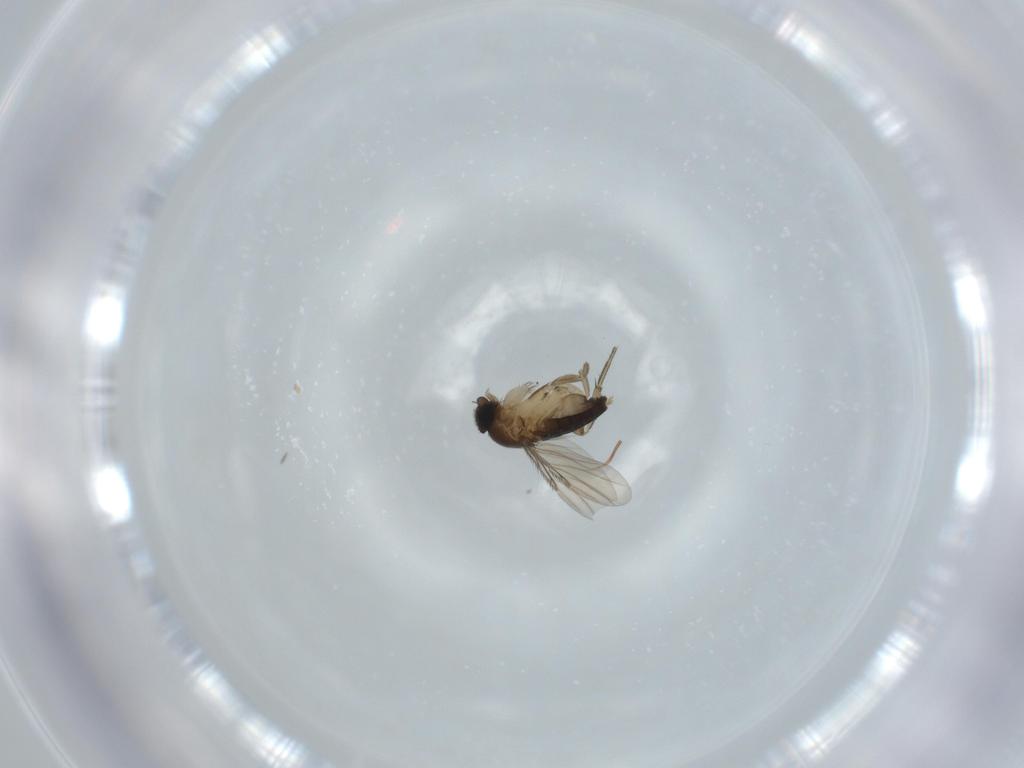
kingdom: Animalia
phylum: Arthropoda
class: Insecta
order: Diptera
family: Phoridae
